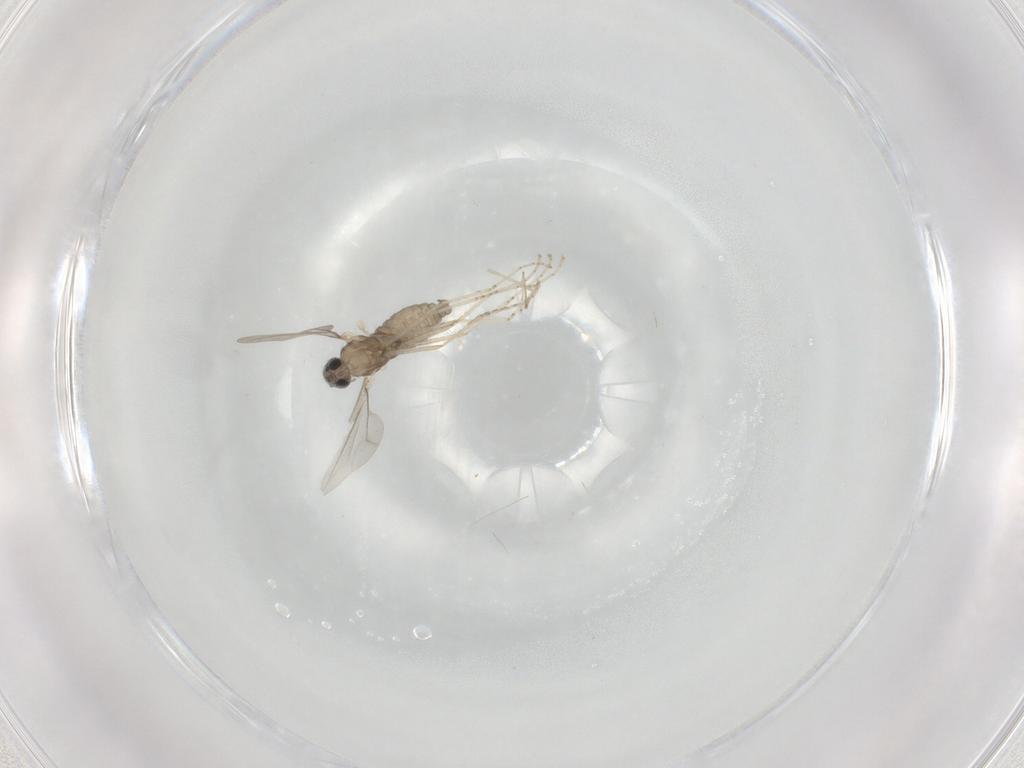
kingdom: Animalia
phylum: Arthropoda
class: Insecta
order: Diptera
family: Cecidomyiidae
